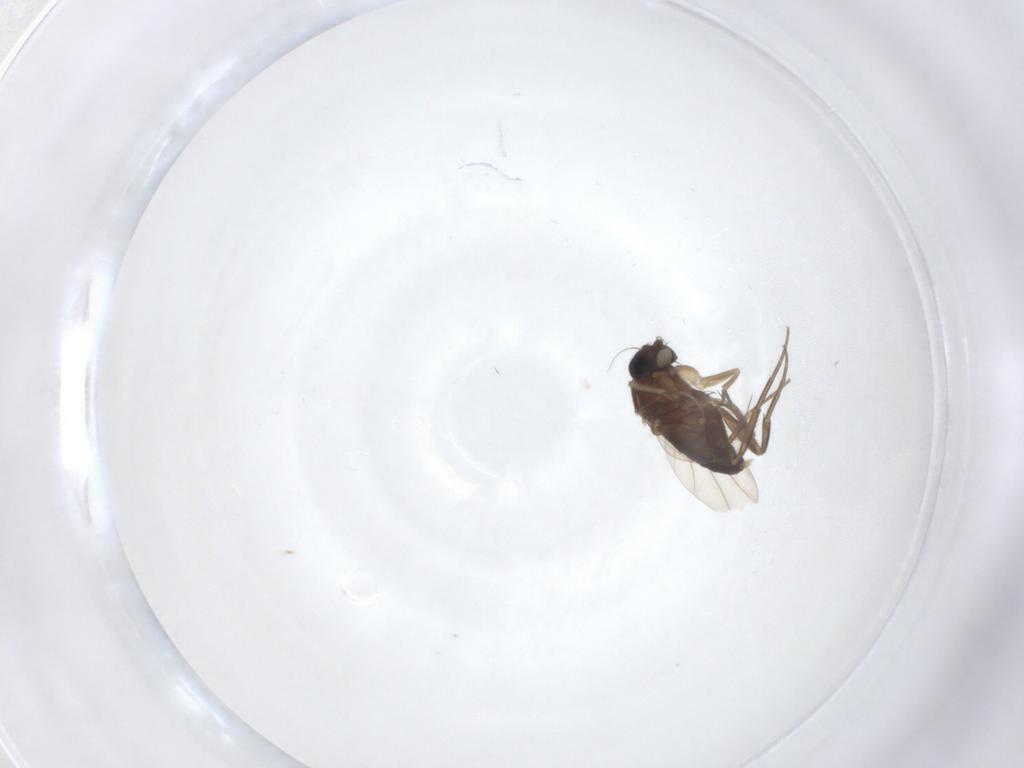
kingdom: Animalia
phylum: Arthropoda
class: Insecta
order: Diptera
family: Phoridae
